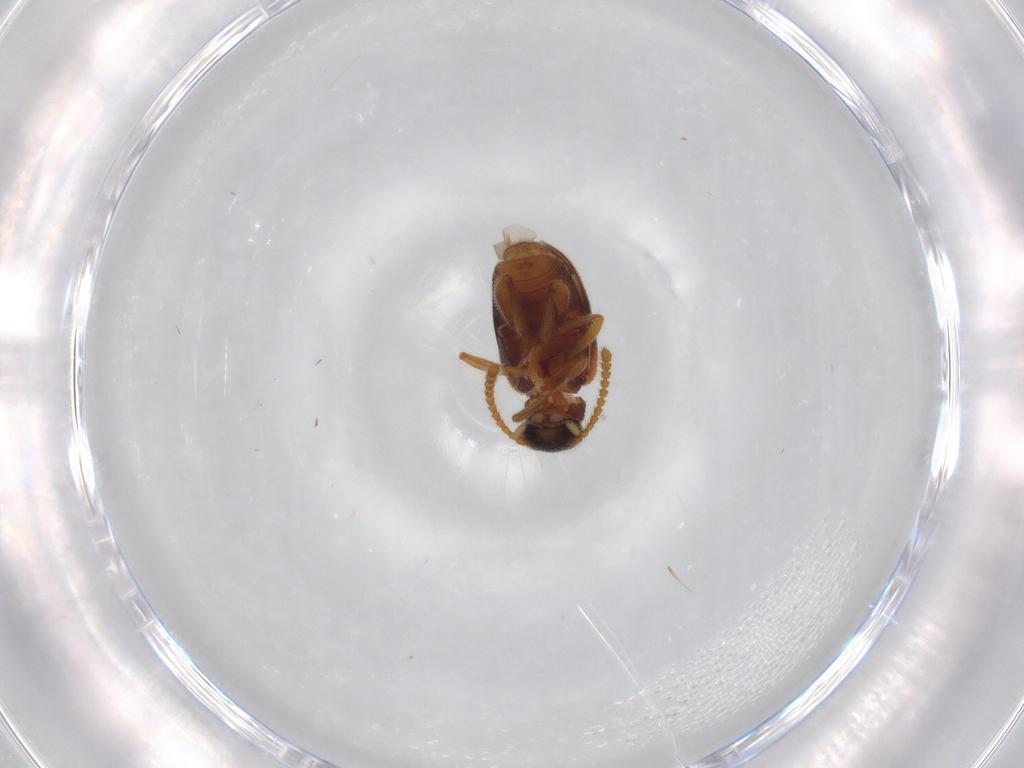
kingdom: Animalia
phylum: Arthropoda
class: Insecta
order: Coleoptera
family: Aderidae
